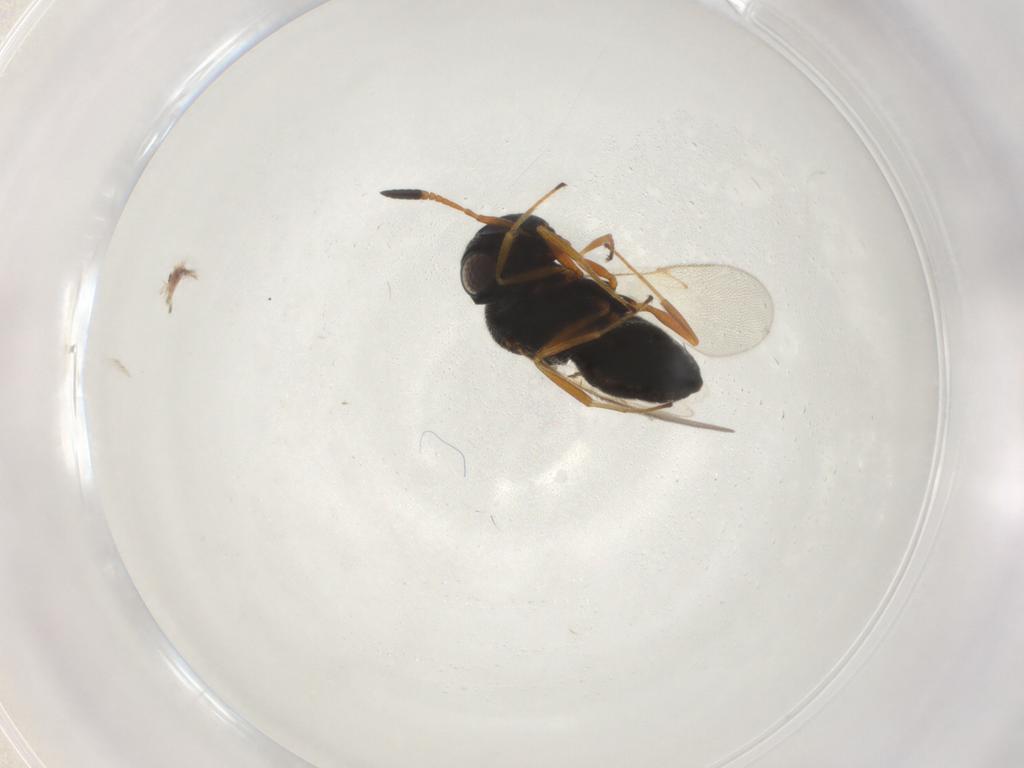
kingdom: Animalia
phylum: Arthropoda
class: Insecta
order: Hymenoptera
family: Scelionidae
